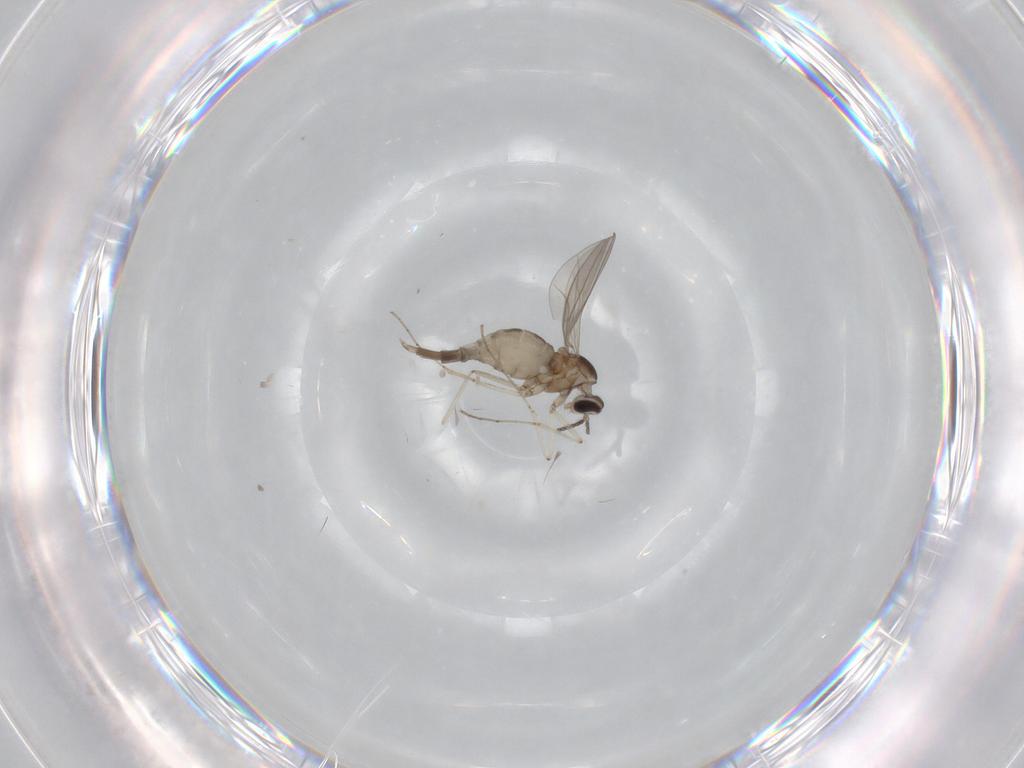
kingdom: Animalia
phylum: Arthropoda
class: Insecta
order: Diptera
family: Cecidomyiidae
